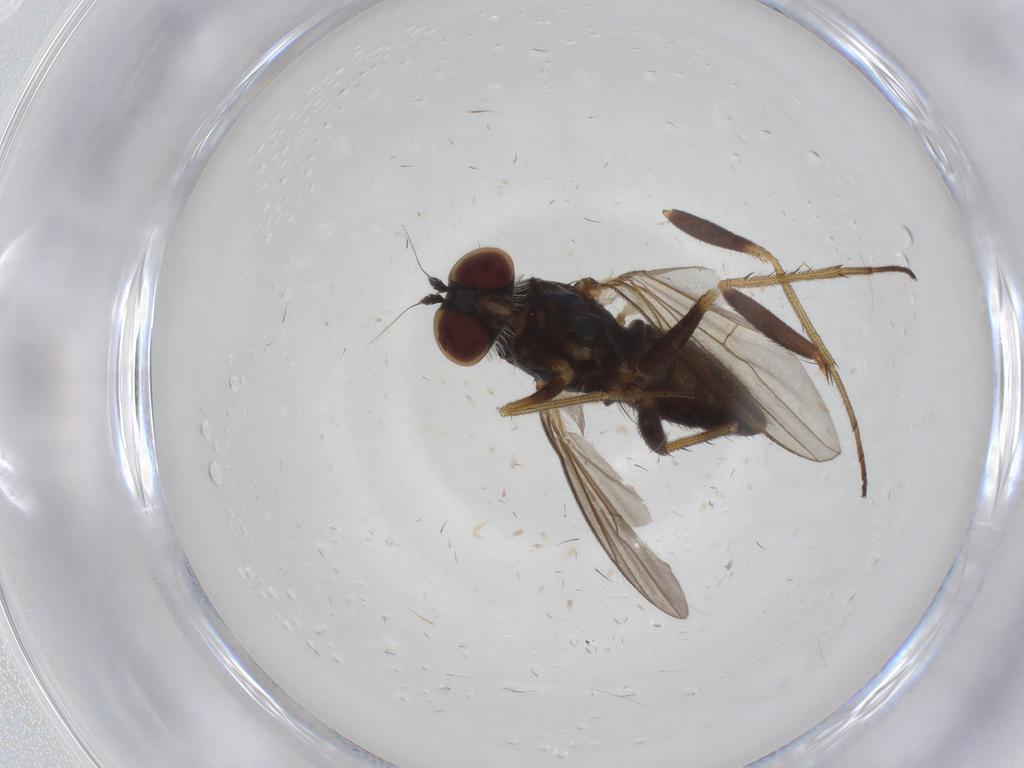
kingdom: Animalia
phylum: Arthropoda
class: Insecta
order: Diptera
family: Dolichopodidae
